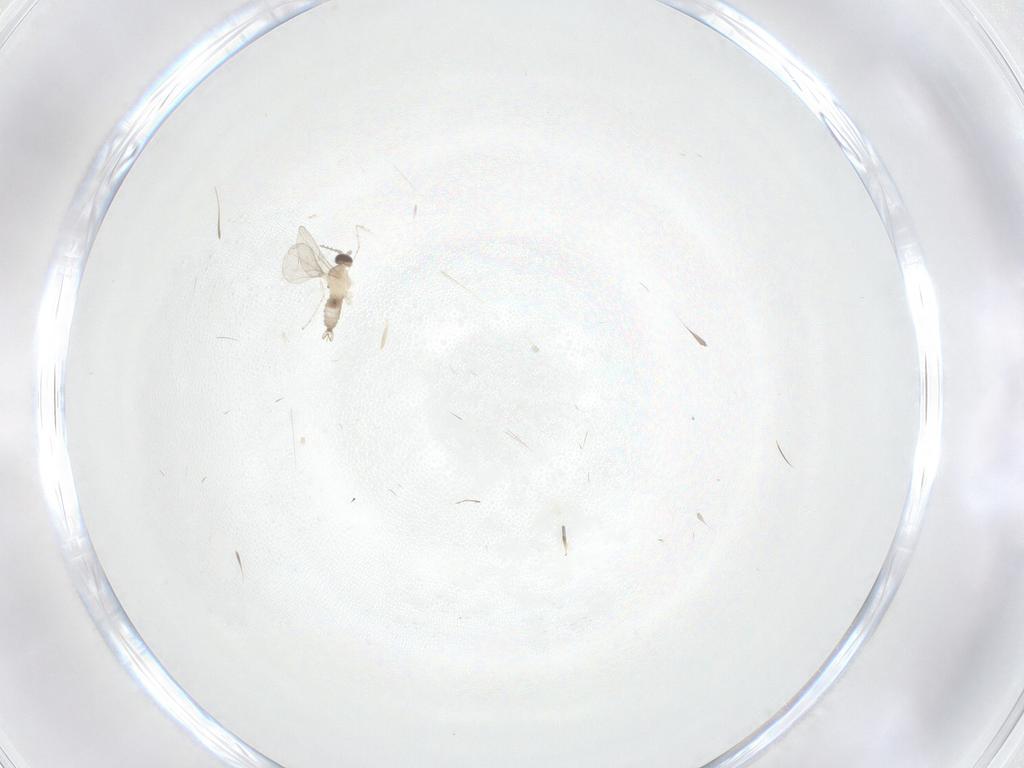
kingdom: Animalia
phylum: Arthropoda
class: Insecta
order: Diptera
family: Cecidomyiidae
